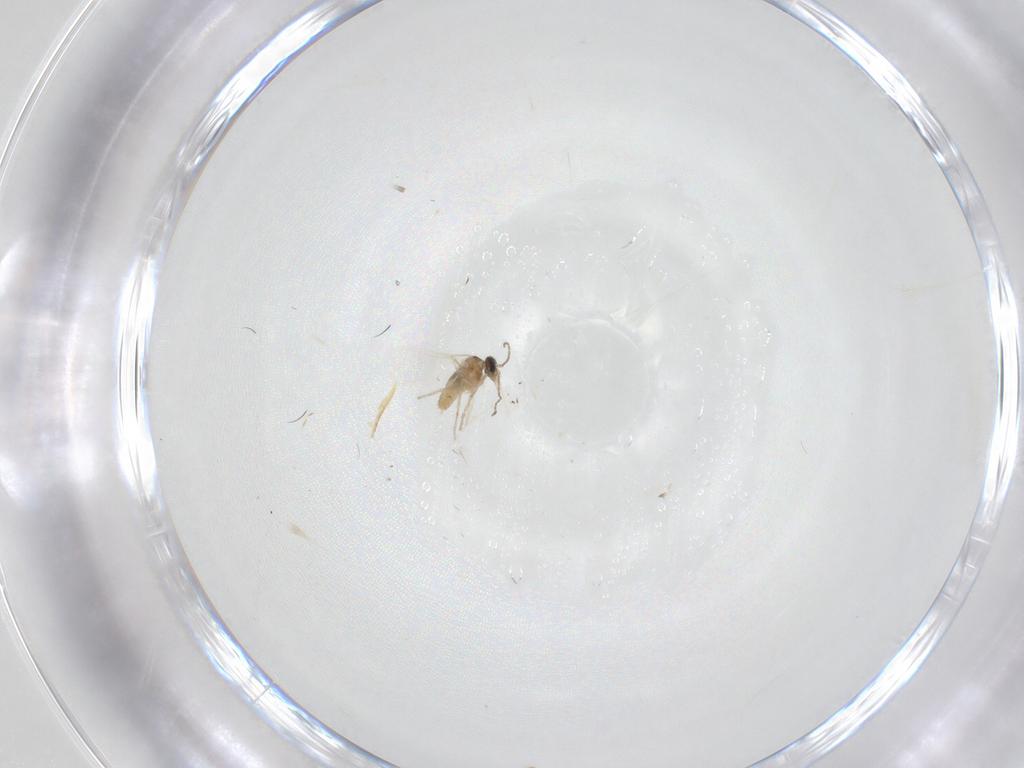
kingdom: Animalia
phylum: Arthropoda
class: Insecta
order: Diptera
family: Cecidomyiidae
